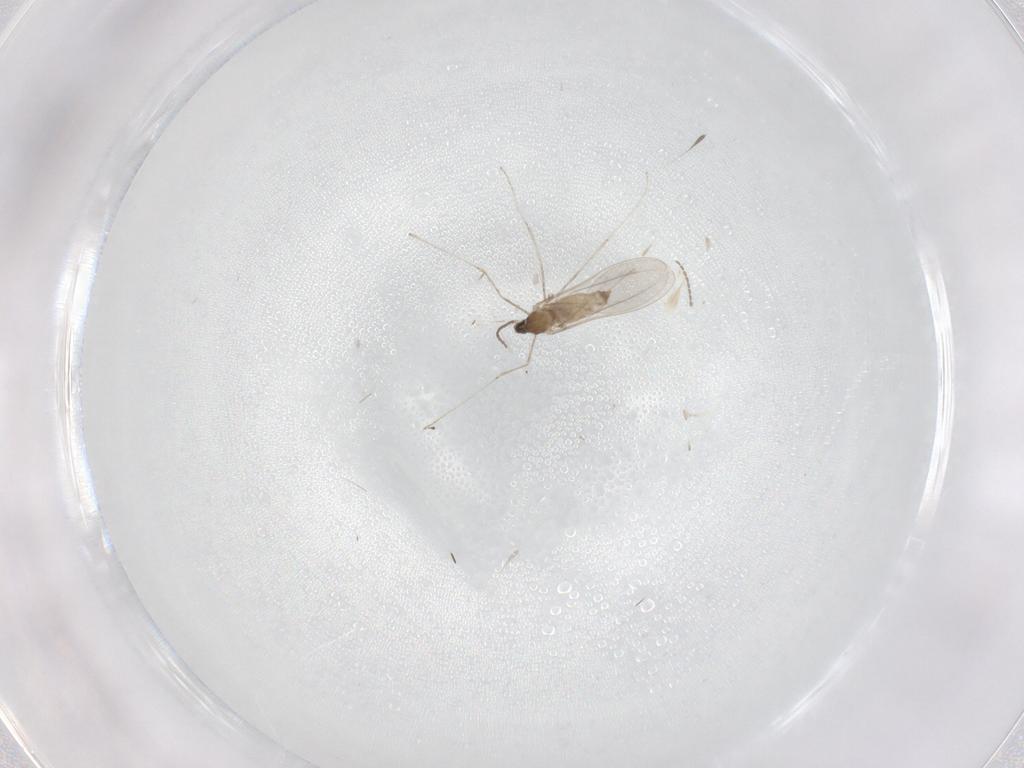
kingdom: Animalia
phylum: Arthropoda
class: Insecta
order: Diptera
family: Cecidomyiidae
